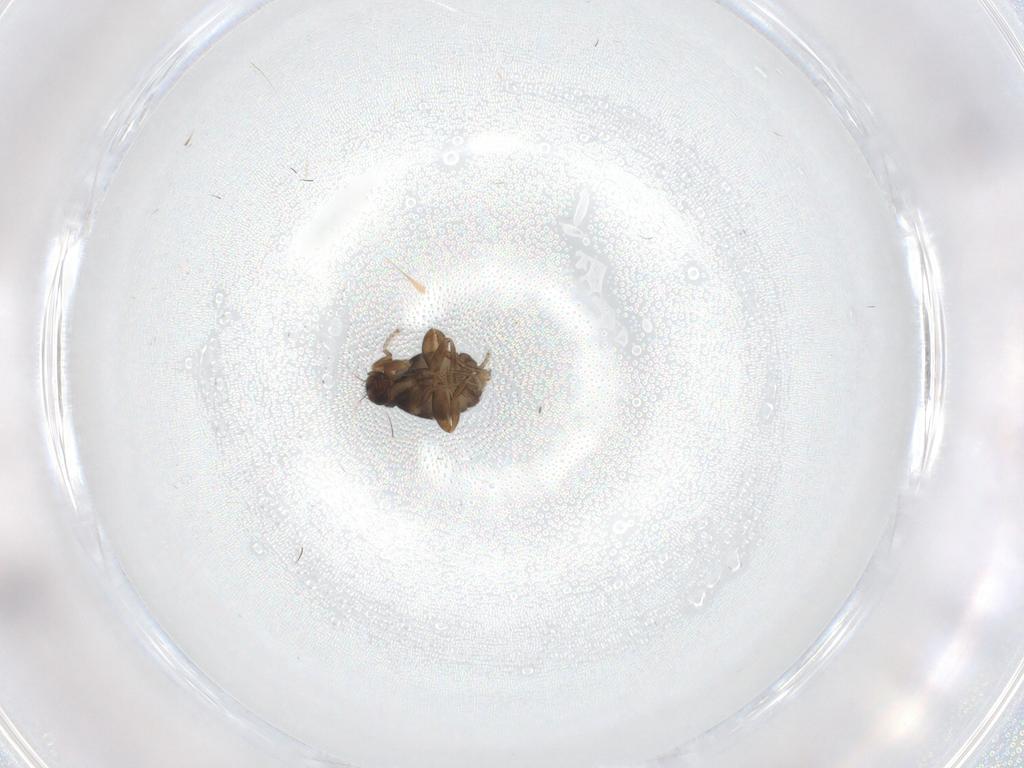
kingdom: Animalia
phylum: Arthropoda
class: Insecta
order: Diptera
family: Phoridae
